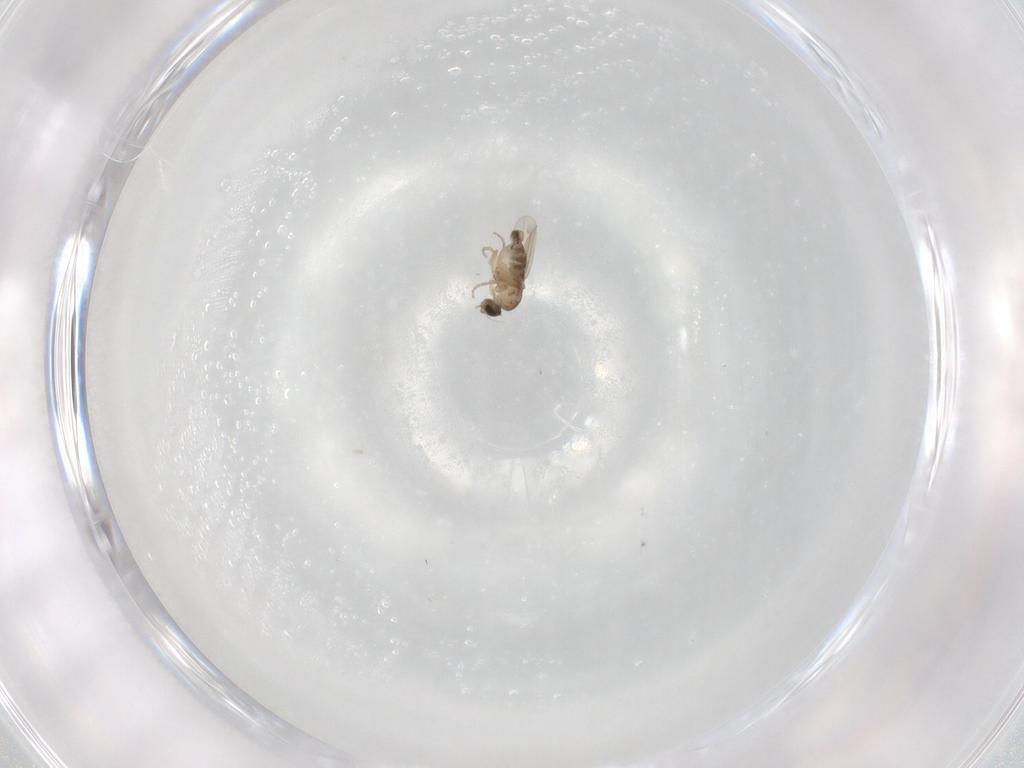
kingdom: Animalia
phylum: Arthropoda
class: Insecta
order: Diptera
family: Phoridae
